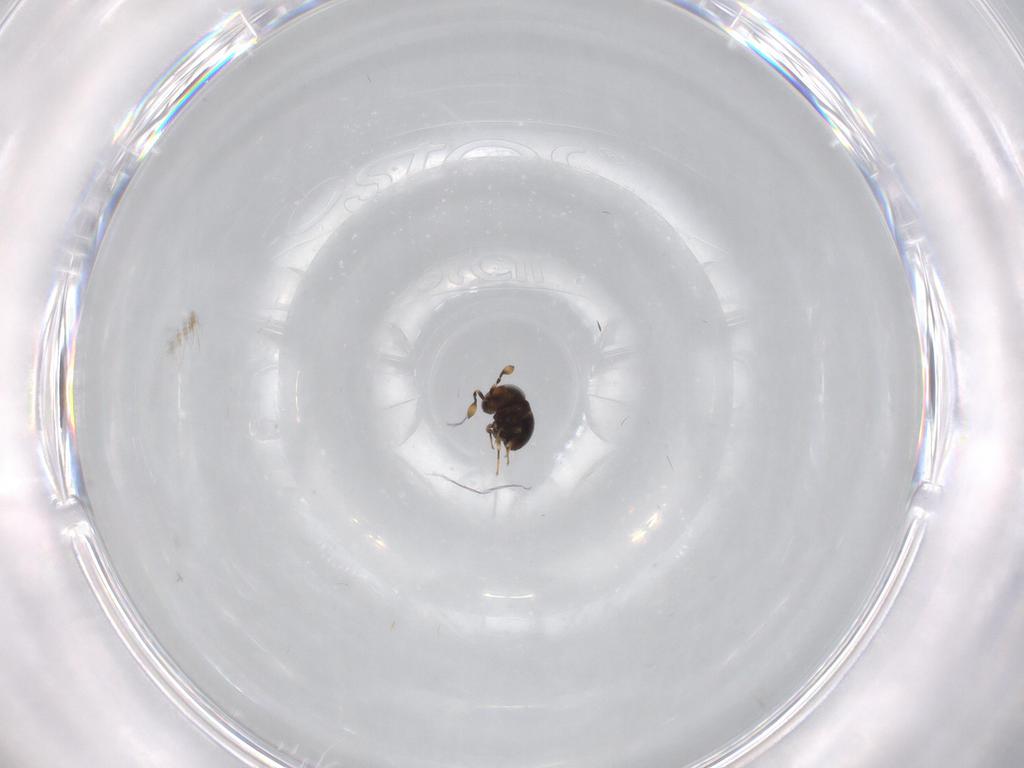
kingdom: Animalia
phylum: Arthropoda
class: Insecta
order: Hymenoptera
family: Scelionidae
